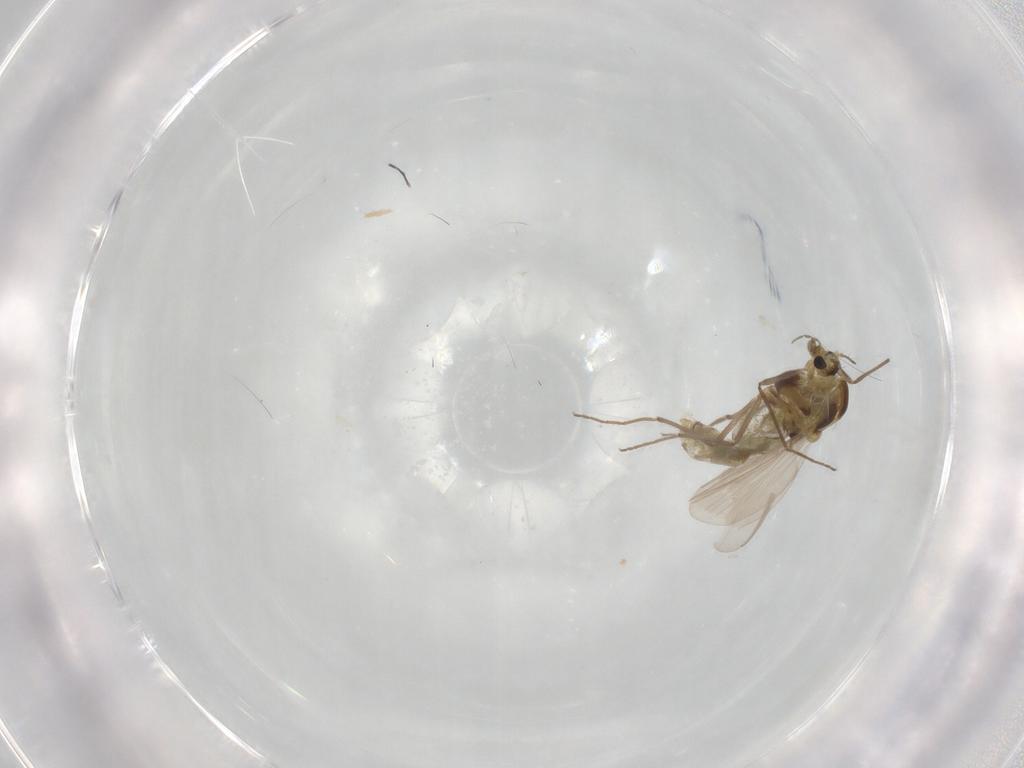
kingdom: Animalia
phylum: Arthropoda
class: Insecta
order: Diptera
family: Chironomidae
